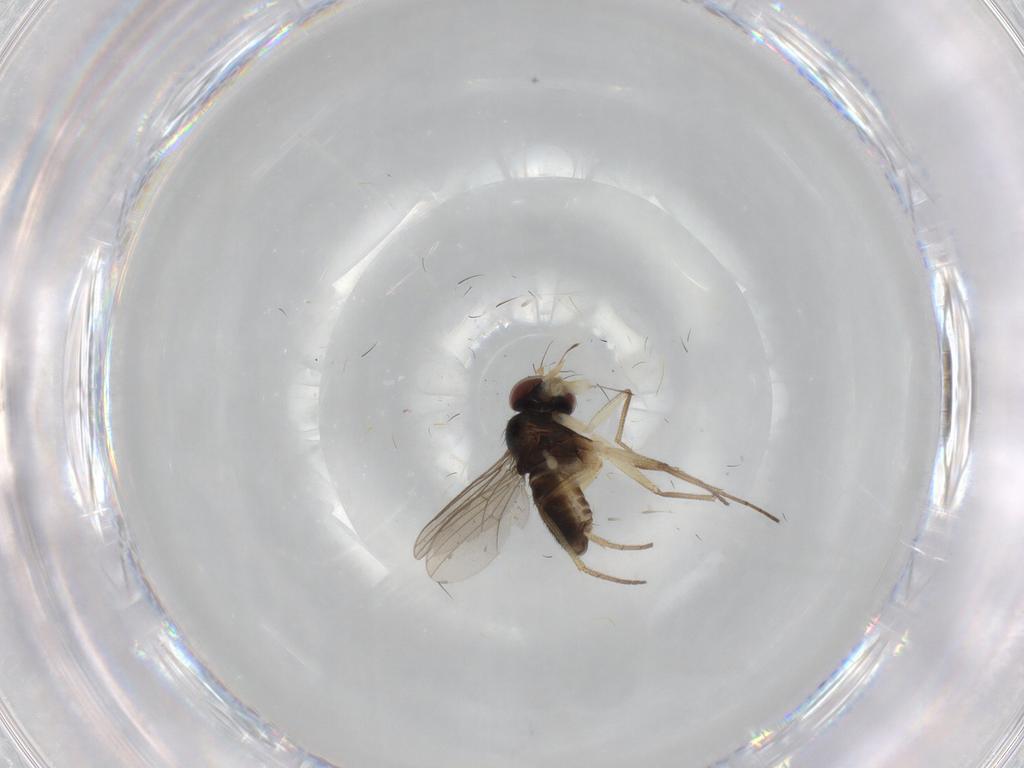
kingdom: Animalia
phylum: Arthropoda
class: Insecta
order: Diptera
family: Dolichopodidae
